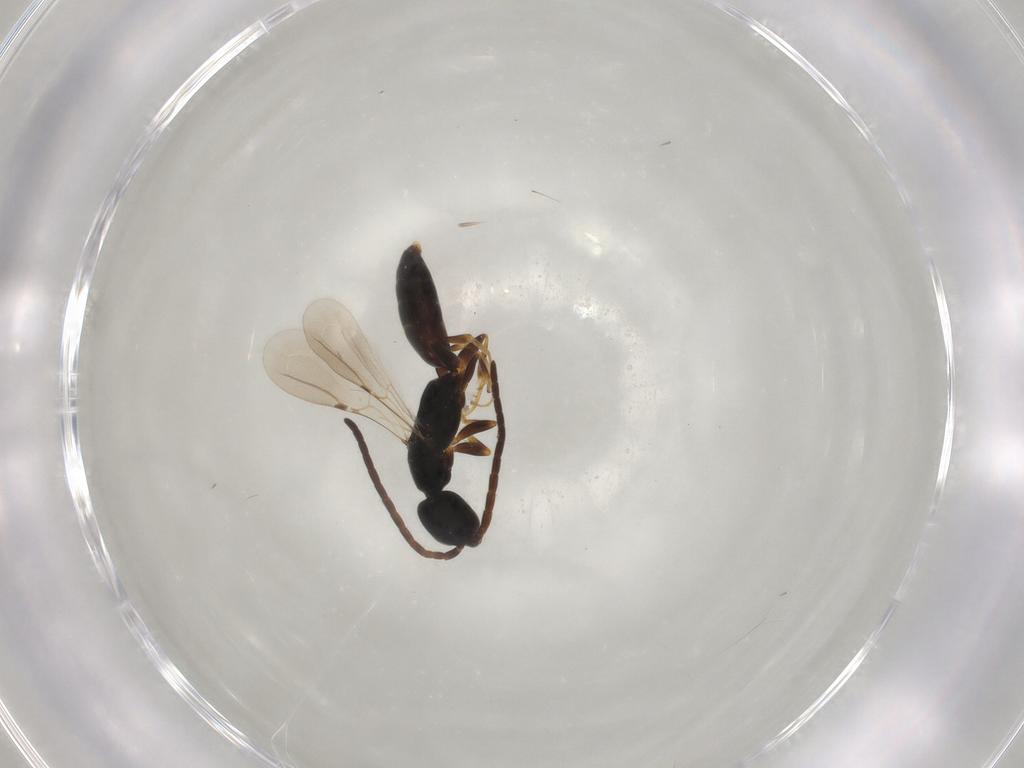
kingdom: Animalia
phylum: Arthropoda
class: Insecta
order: Hymenoptera
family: Bethylidae
